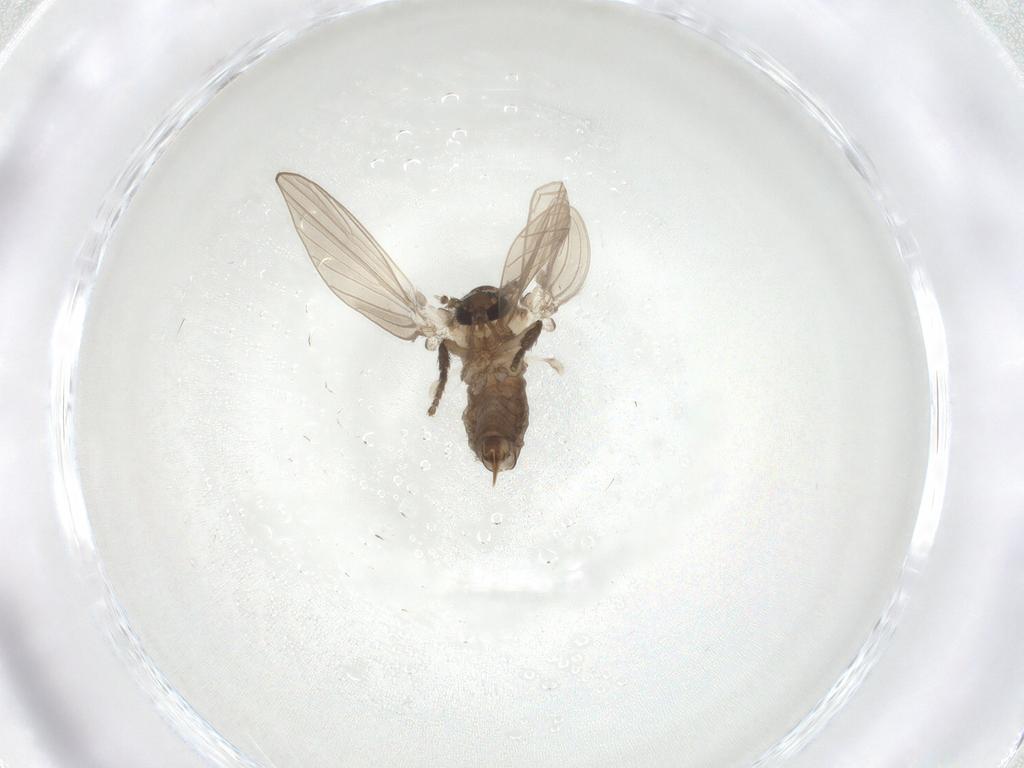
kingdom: Animalia
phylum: Arthropoda
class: Insecta
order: Diptera
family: Psychodidae
